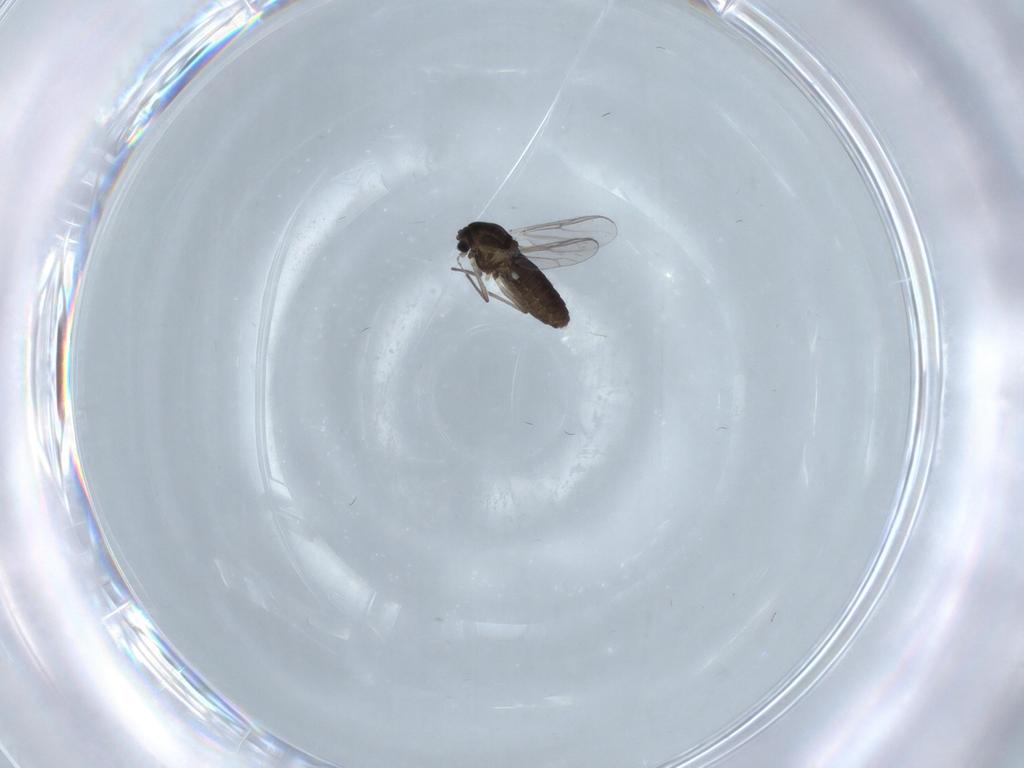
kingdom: Animalia
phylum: Arthropoda
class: Insecta
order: Diptera
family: Chironomidae
